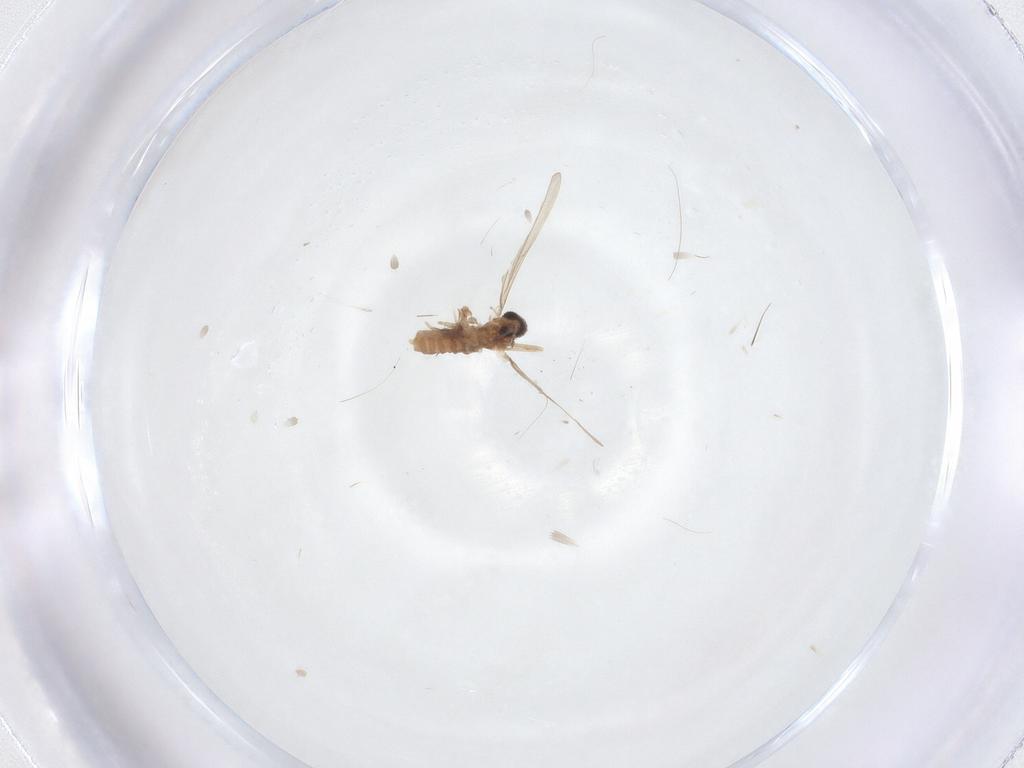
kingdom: Animalia
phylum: Arthropoda
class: Insecta
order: Diptera
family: Cecidomyiidae
